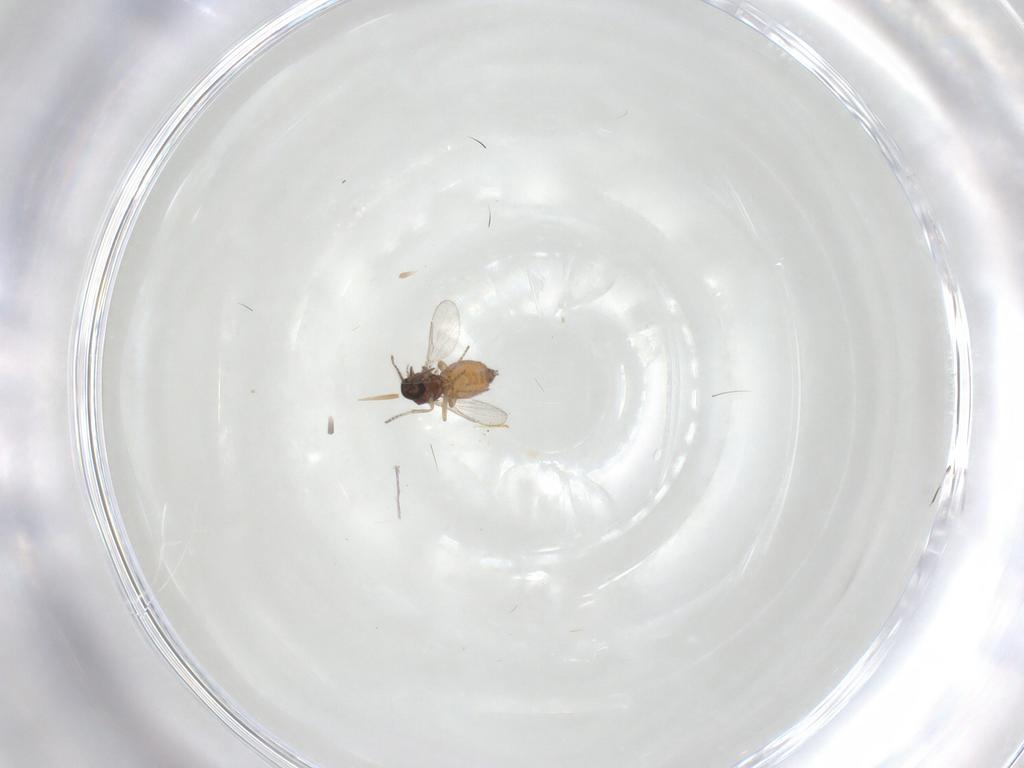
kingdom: Animalia
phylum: Arthropoda
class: Insecta
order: Diptera
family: Ceratopogonidae
